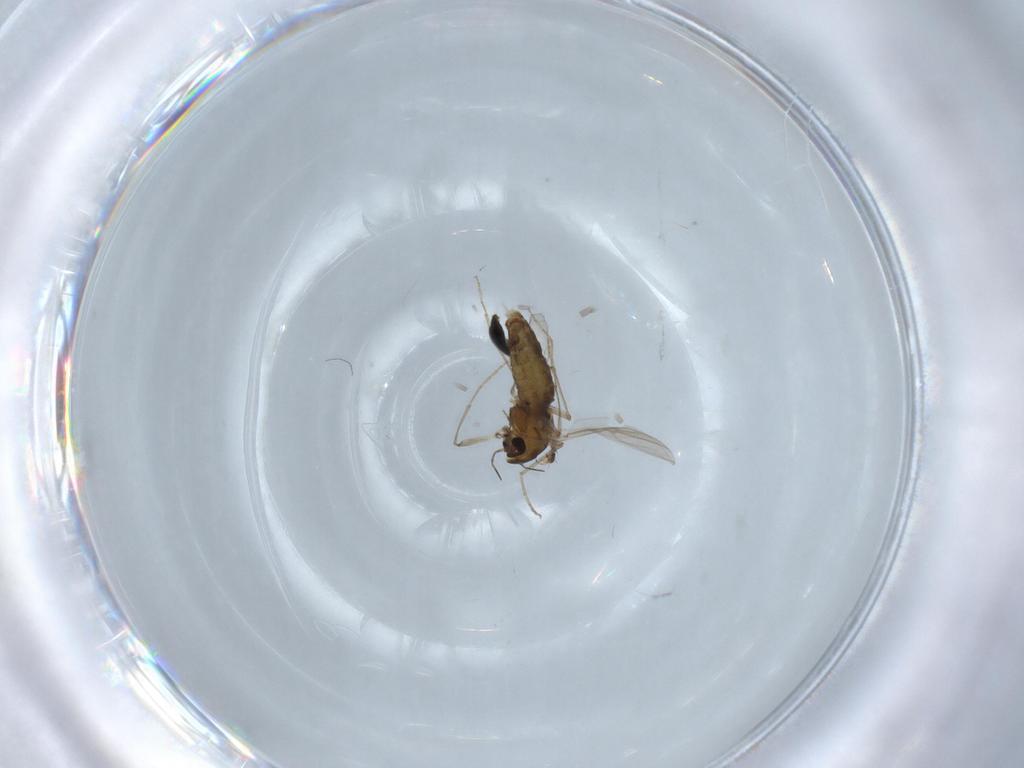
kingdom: Animalia
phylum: Arthropoda
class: Insecta
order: Diptera
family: Chironomidae
